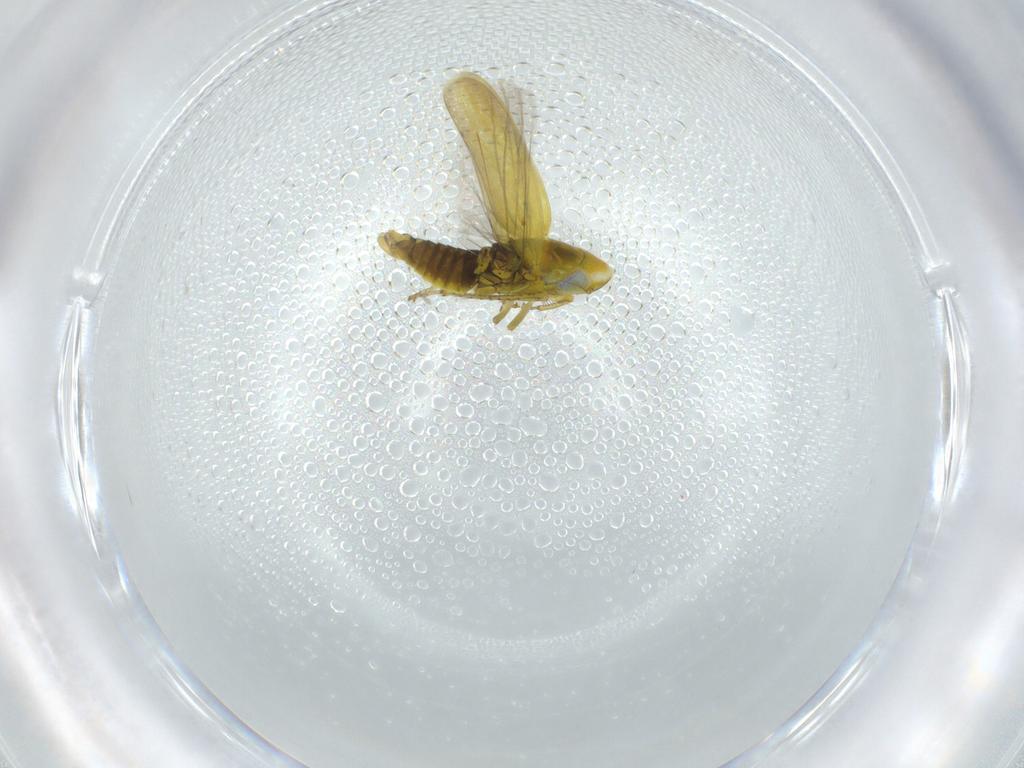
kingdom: Animalia
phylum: Arthropoda
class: Insecta
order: Hemiptera
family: Cicadellidae
